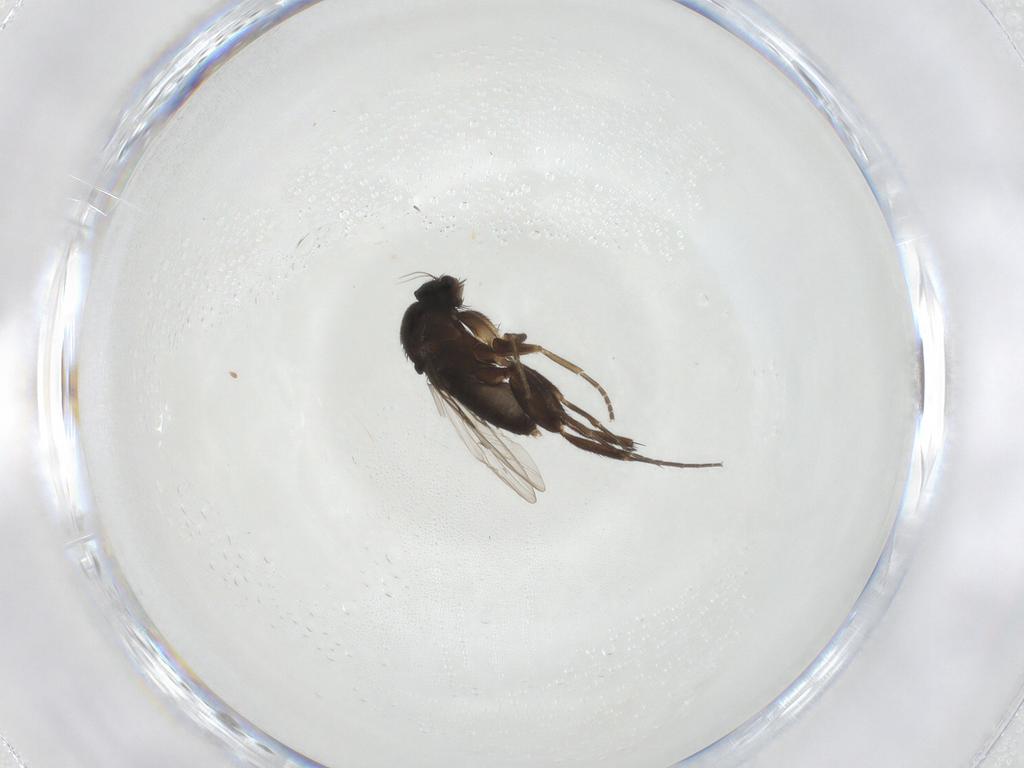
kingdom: Animalia
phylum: Arthropoda
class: Insecta
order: Diptera
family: Phoridae
